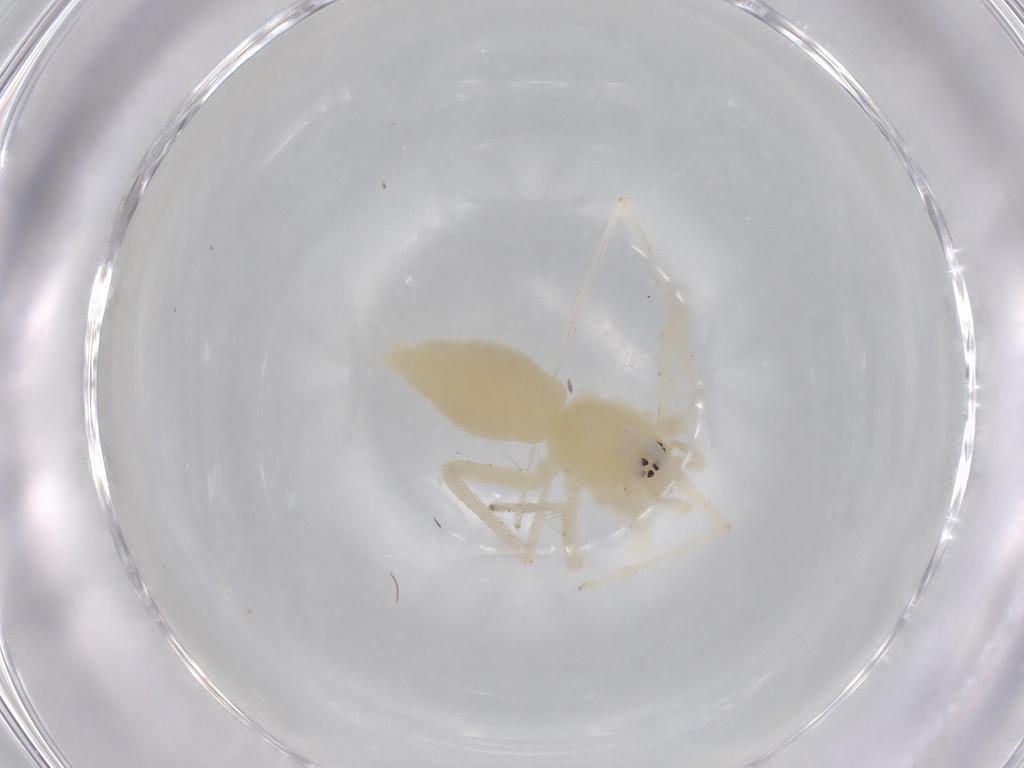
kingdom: Animalia
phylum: Arthropoda
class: Arachnida
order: Araneae
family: Anyphaenidae
